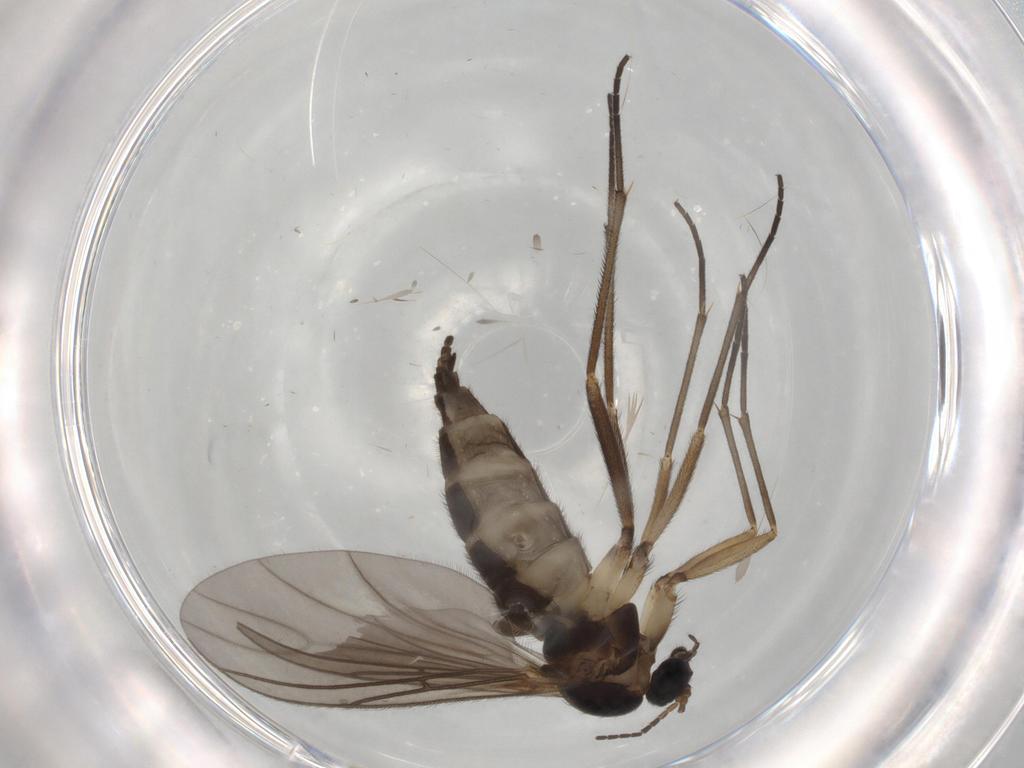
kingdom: Animalia
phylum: Arthropoda
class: Insecta
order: Diptera
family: Sciaridae
